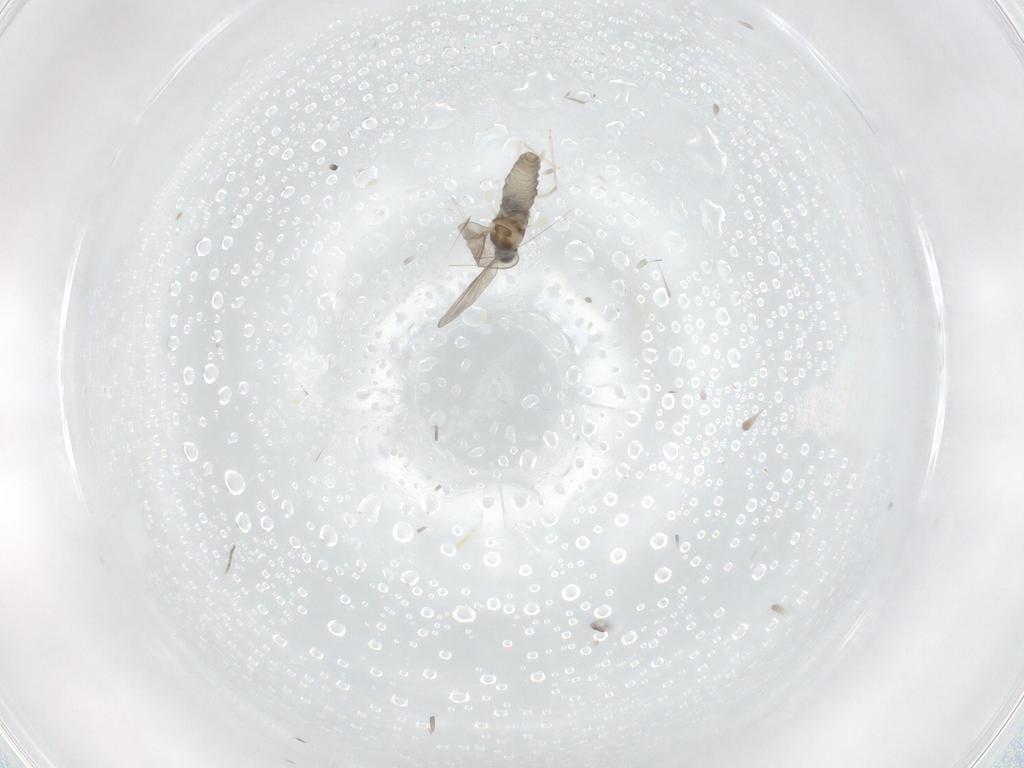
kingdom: Animalia
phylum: Arthropoda
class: Insecta
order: Diptera
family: Cecidomyiidae
